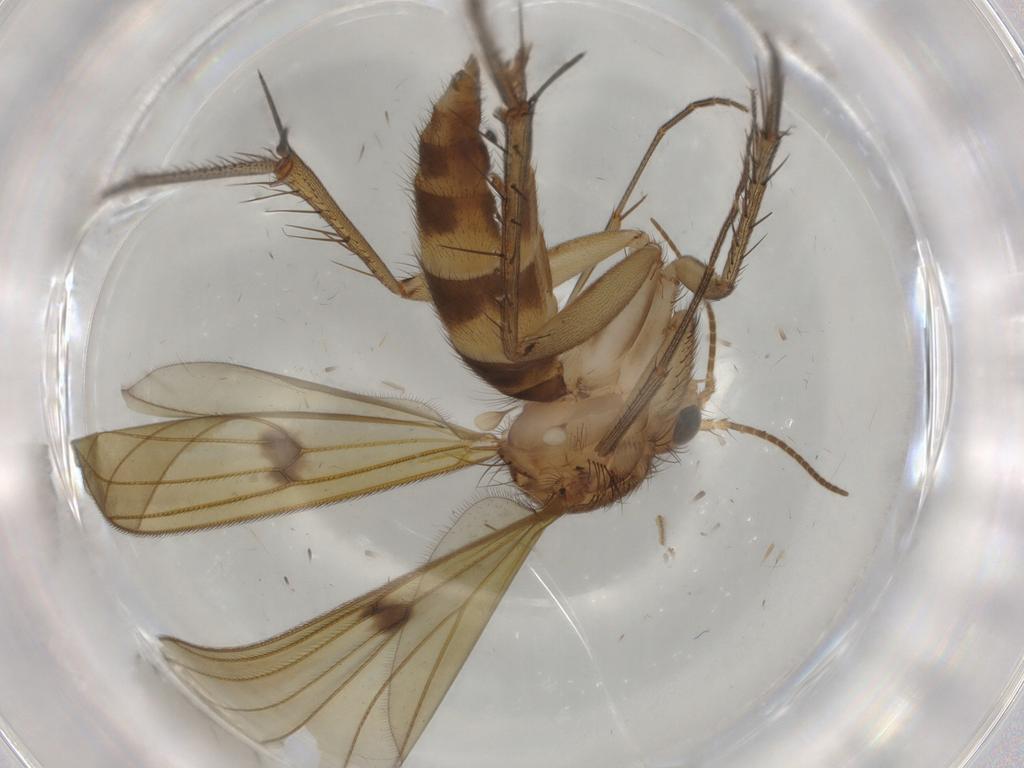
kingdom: Animalia
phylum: Arthropoda
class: Insecta
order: Diptera
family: Mycetophilidae
